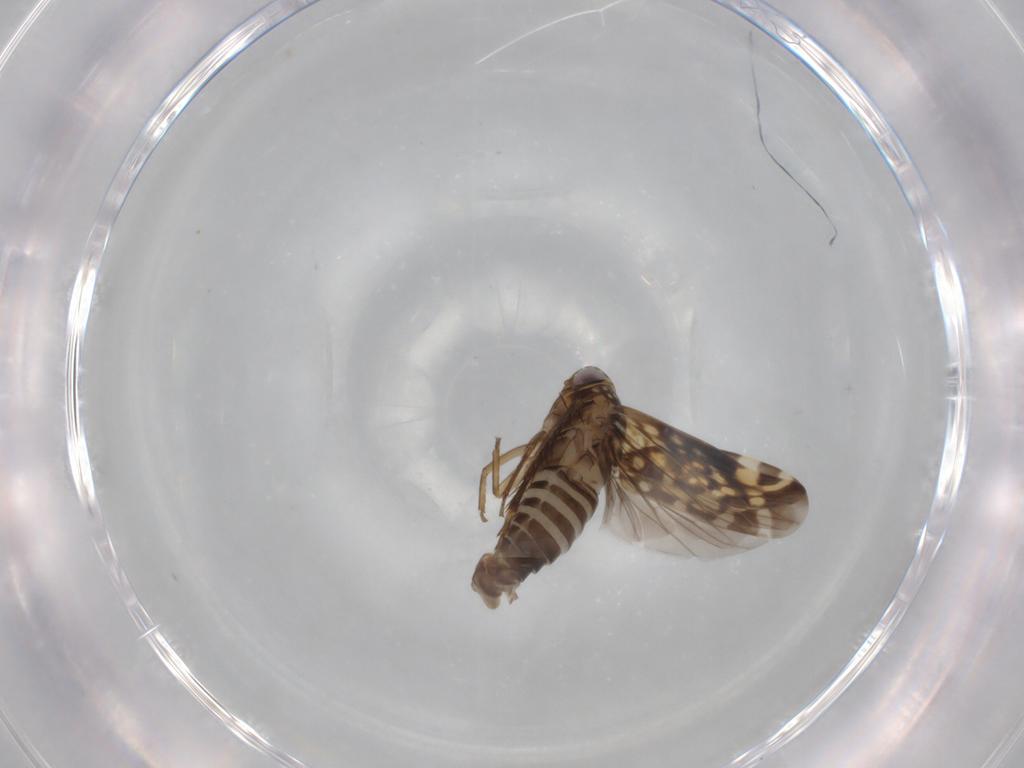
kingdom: Animalia
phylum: Arthropoda
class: Insecta
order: Hemiptera
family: Cicadellidae
